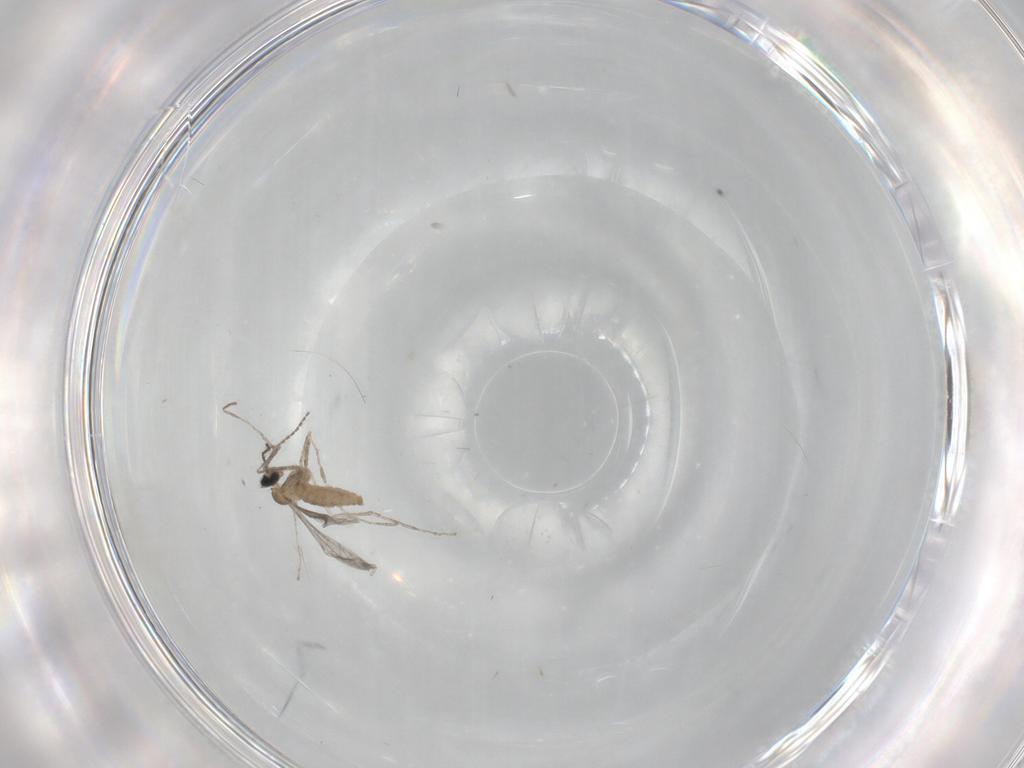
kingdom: Animalia
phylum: Arthropoda
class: Insecta
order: Diptera
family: Cecidomyiidae
